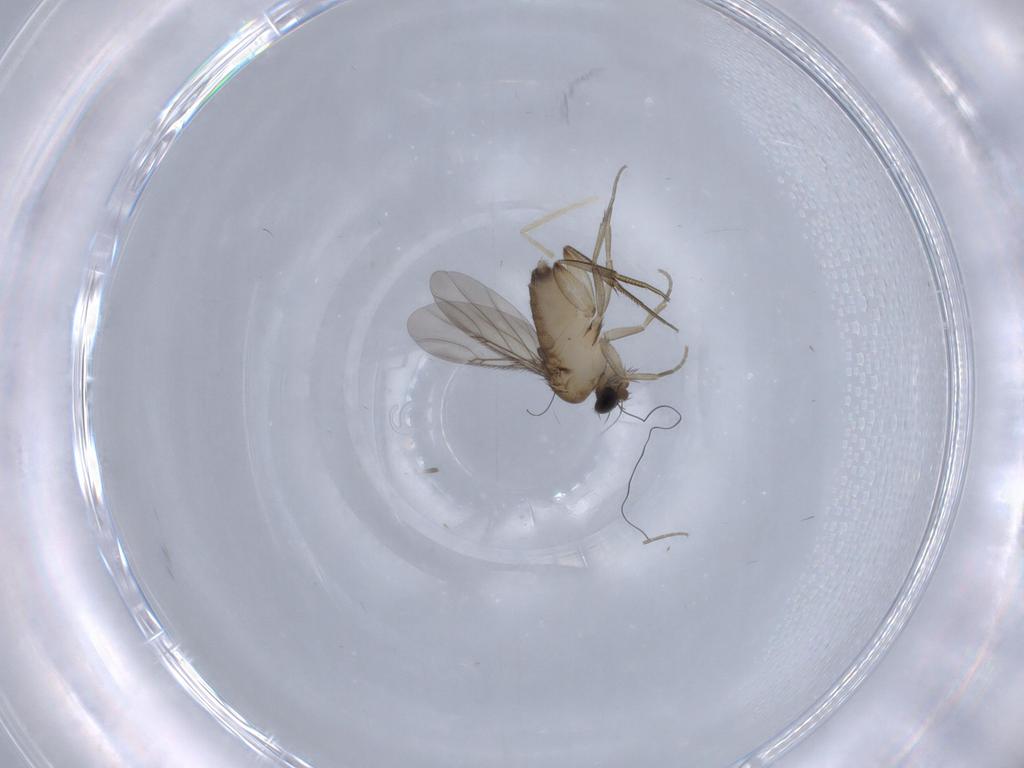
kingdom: Animalia
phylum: Arthropoda
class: Insecta
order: Diptera
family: Phoridae
